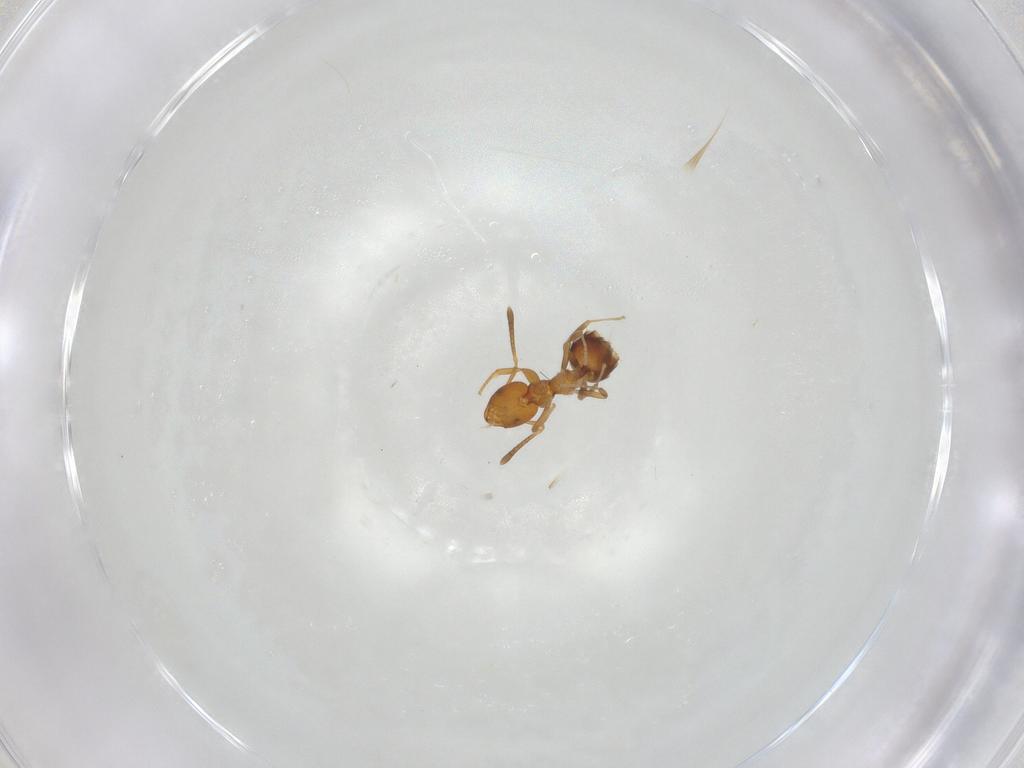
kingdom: Animalia
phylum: Arthropoda
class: Insecta
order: Hymenoptera
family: Formicidae
